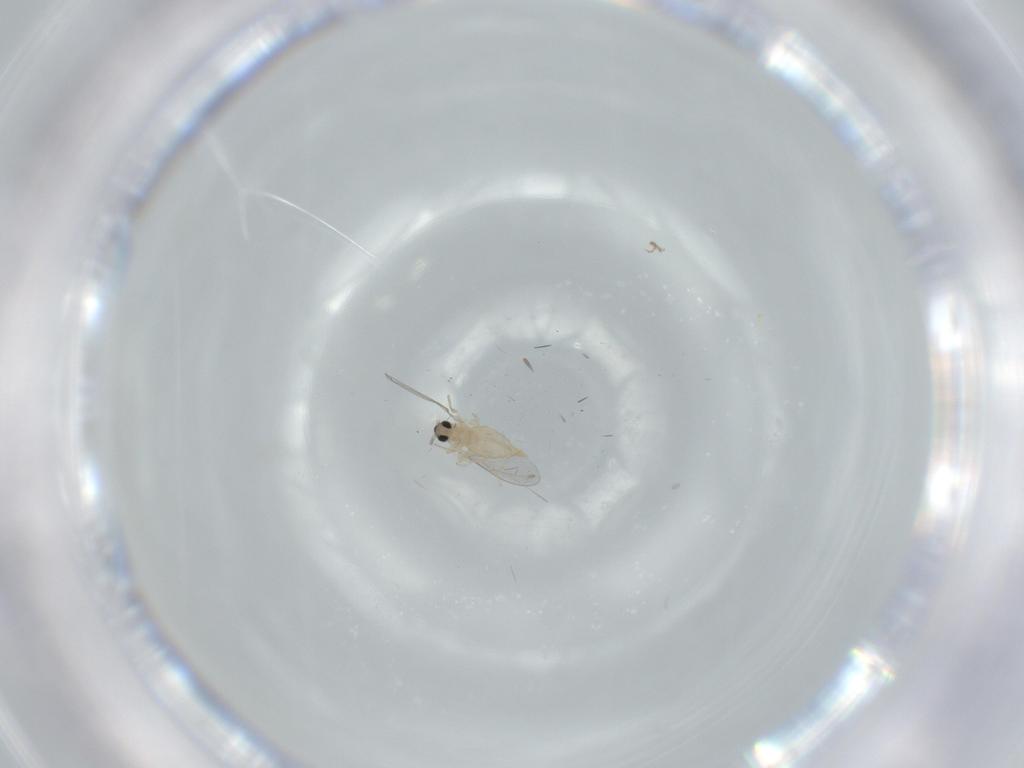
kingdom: Animalia
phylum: Arthropoda
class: Insecta
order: Diptera
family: Cecidomyiidae
